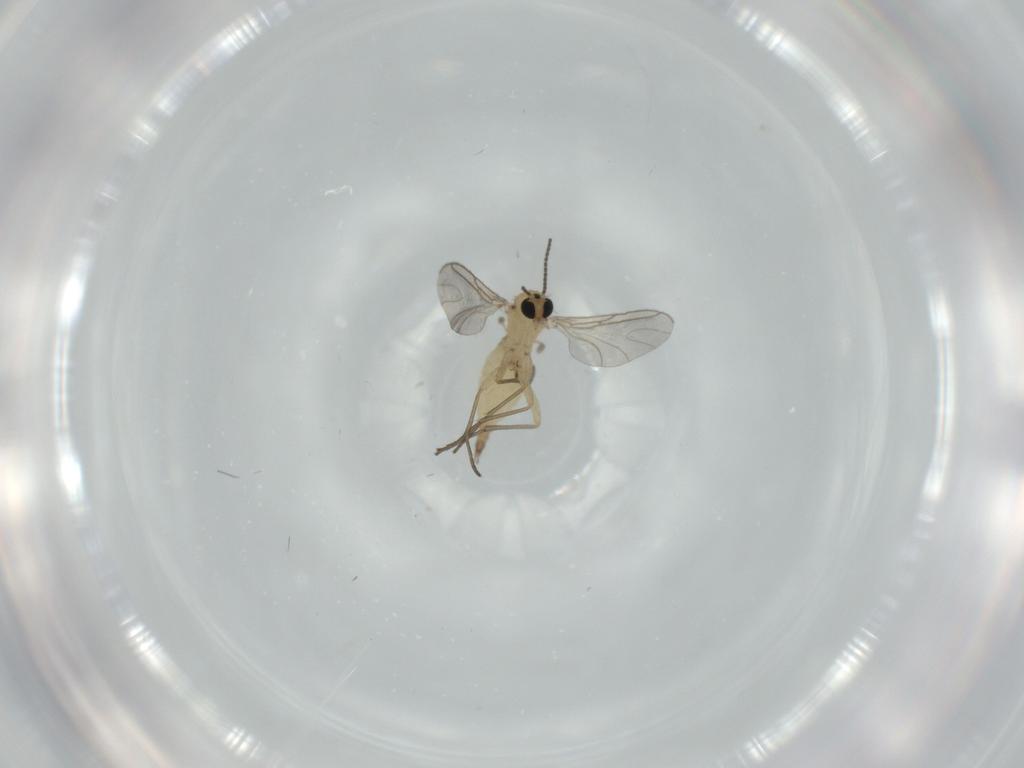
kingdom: Animalia
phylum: Arthropoda
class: Insecta
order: Diptera
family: Sciaridae
